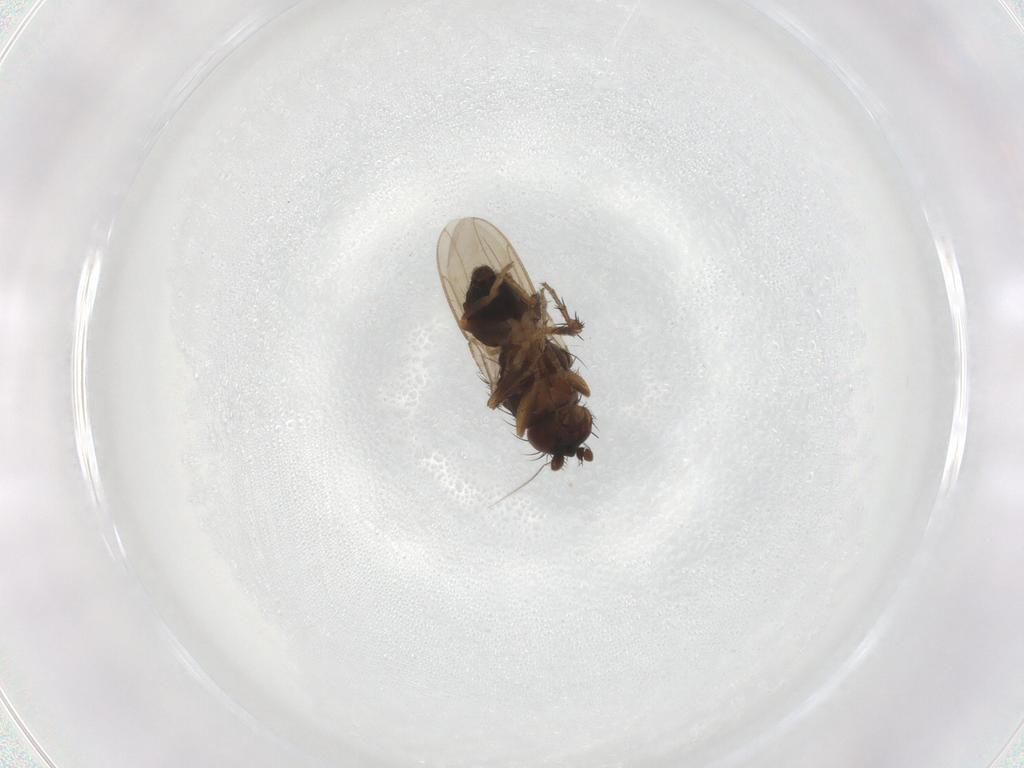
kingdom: Animalia
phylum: Arthropoda
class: Insecta
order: Diptera
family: Sphaeroceridae
